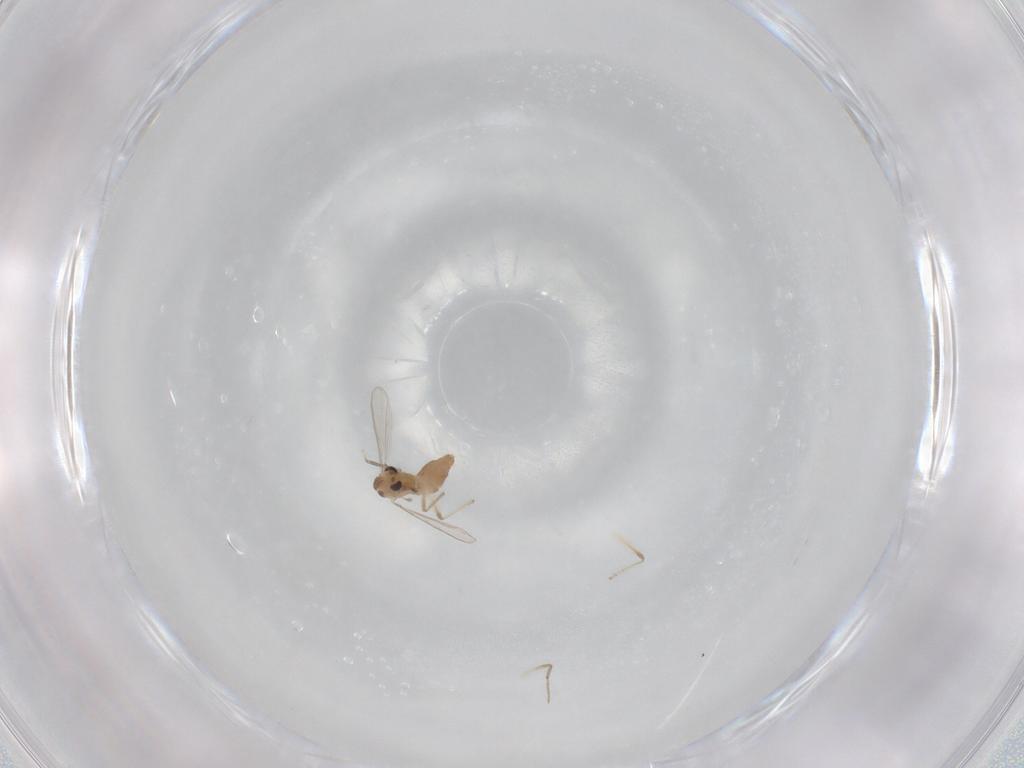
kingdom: Animalia
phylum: Arthropoda
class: Insecta
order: Diptera
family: Chironomidae
